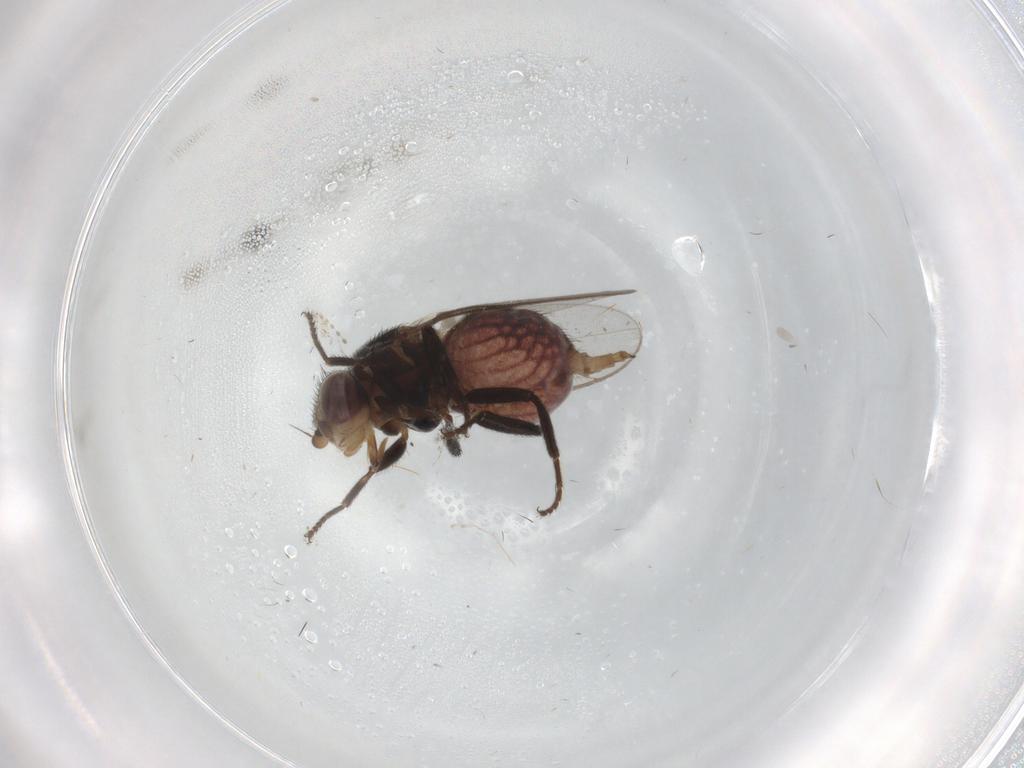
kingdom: Animalia
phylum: Arthropoda
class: Insecta
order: Diptera
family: Chloropidae
